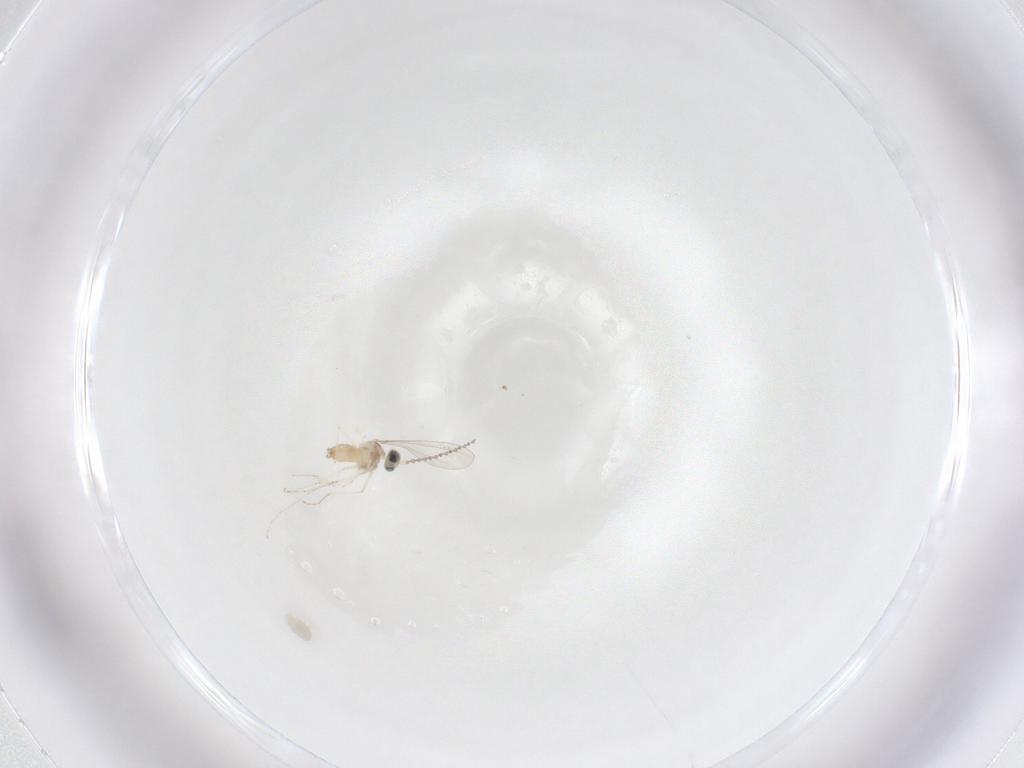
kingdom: Animalia
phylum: Arthropoda
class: Insecta
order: Diptera
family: Cecidomyiidae
